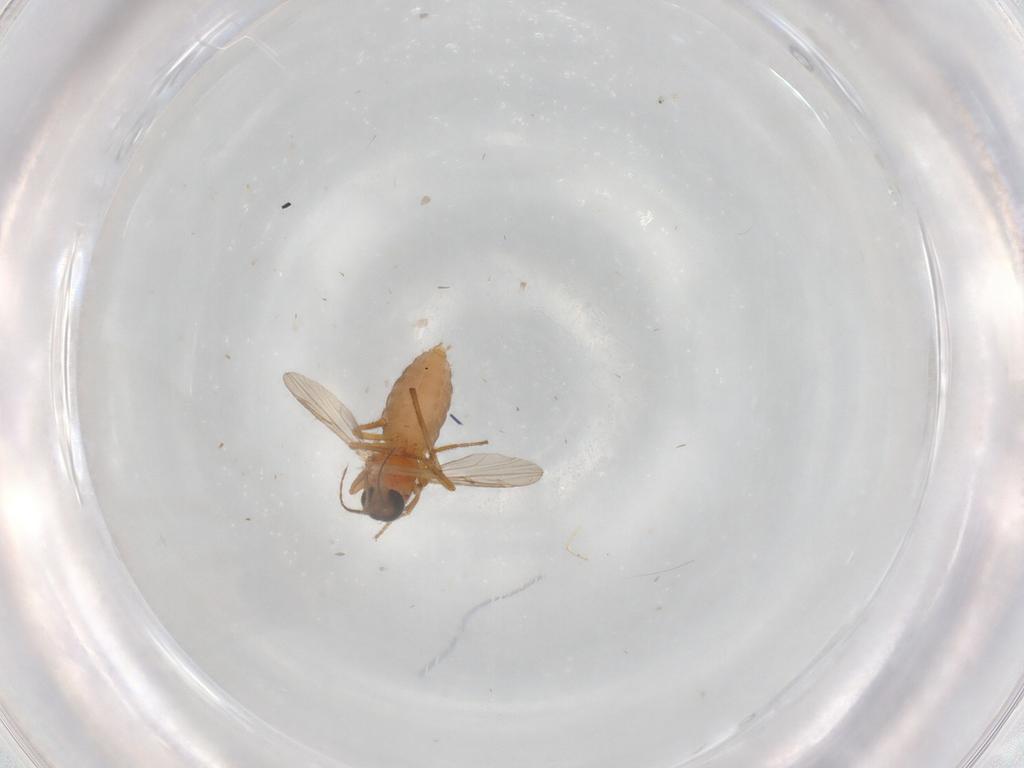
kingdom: Animalia
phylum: Arthropoda
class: Insecta
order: Diptera
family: Ceratopogonidae
